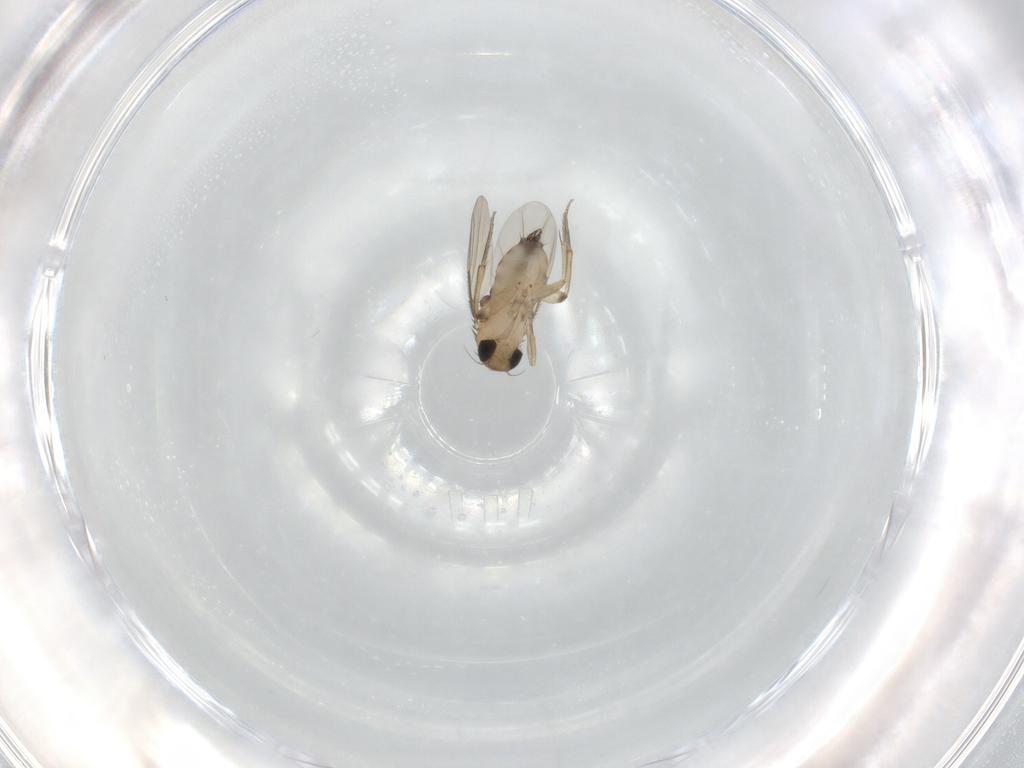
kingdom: Animalia
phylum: Arthropoda
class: Insecta
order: Diptera
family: Phoridae
